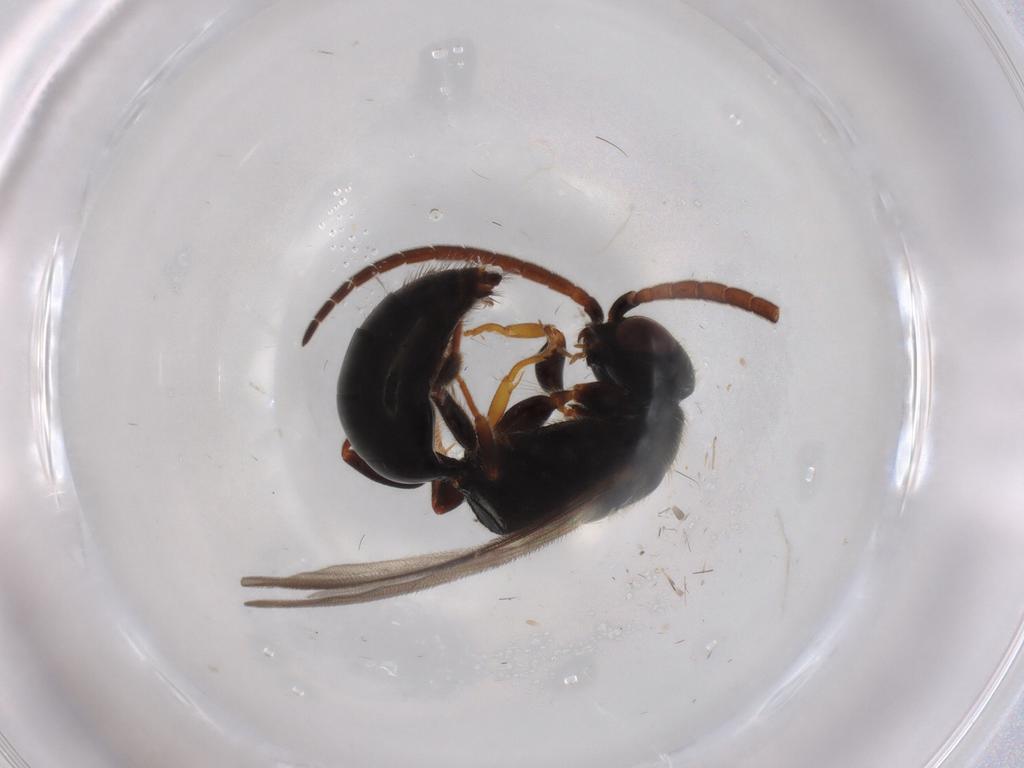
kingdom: Animalia
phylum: Arthropoda
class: Insecta
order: Hymenoptera
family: Bethylidae
